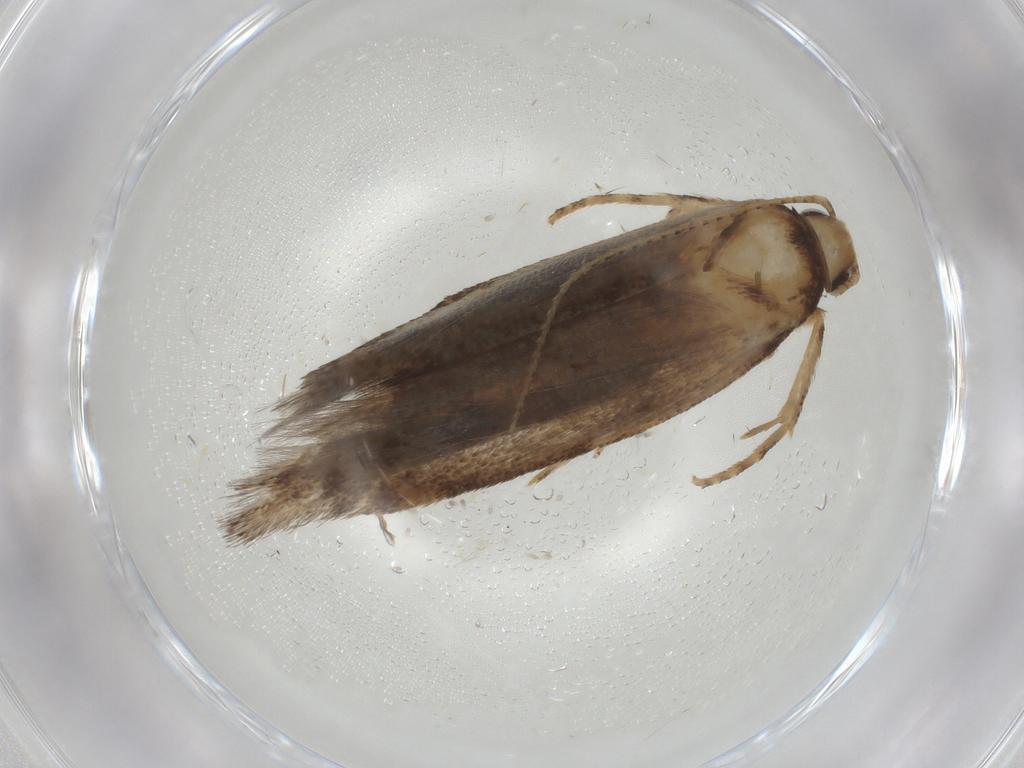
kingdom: Animalia
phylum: Arthropoda
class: Insecta
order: Lepidoptera
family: Plutellidae
